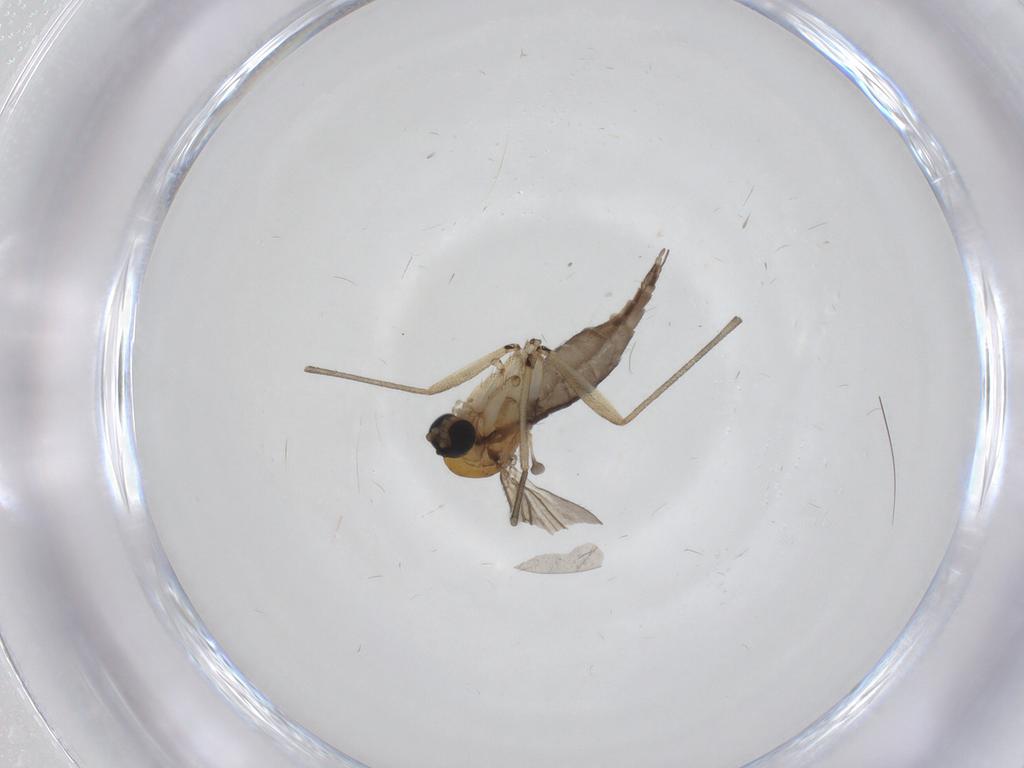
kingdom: Animalia
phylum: Arthropoda
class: Insecta
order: Diptera
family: Sciaridae
